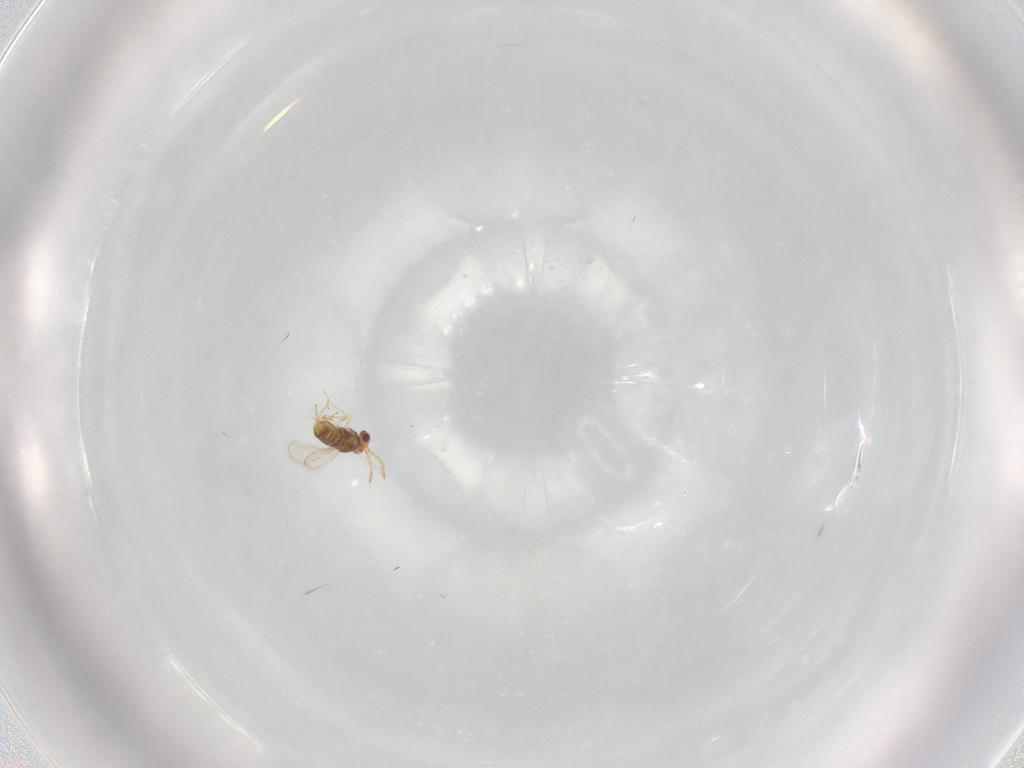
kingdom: Animalia
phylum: Arthropoda
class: Insecta
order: Hymenoptera
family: Aphelinidae
